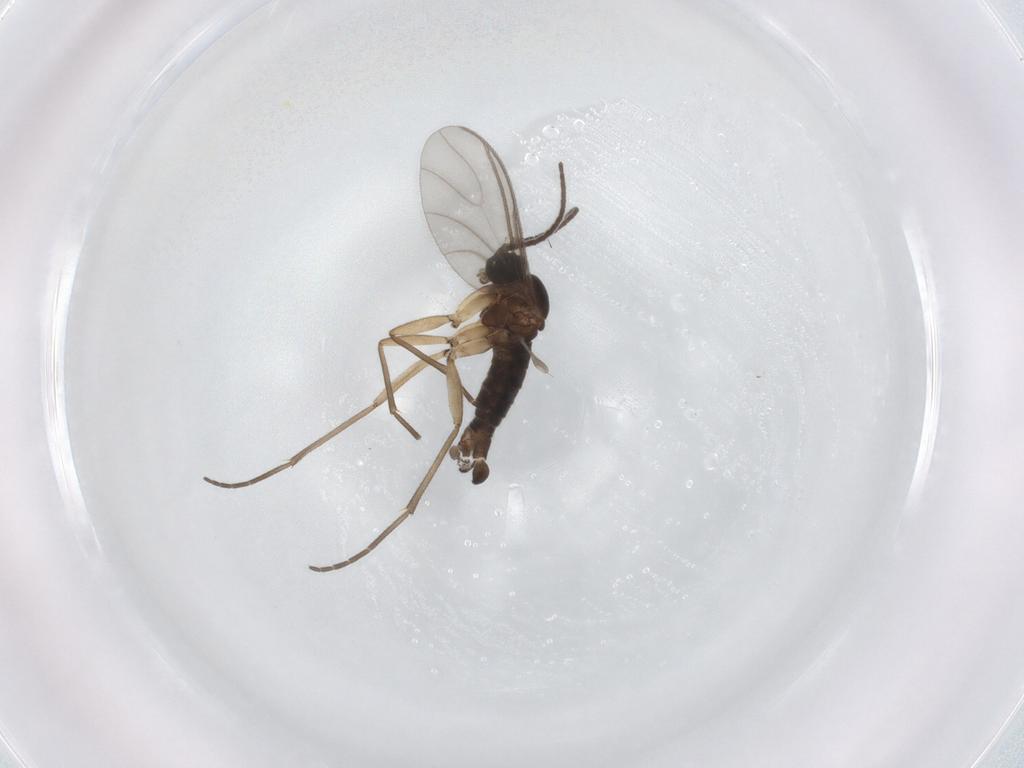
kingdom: Animalia
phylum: Arthropoda
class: Insecta
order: Diptera
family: Sciaridae
